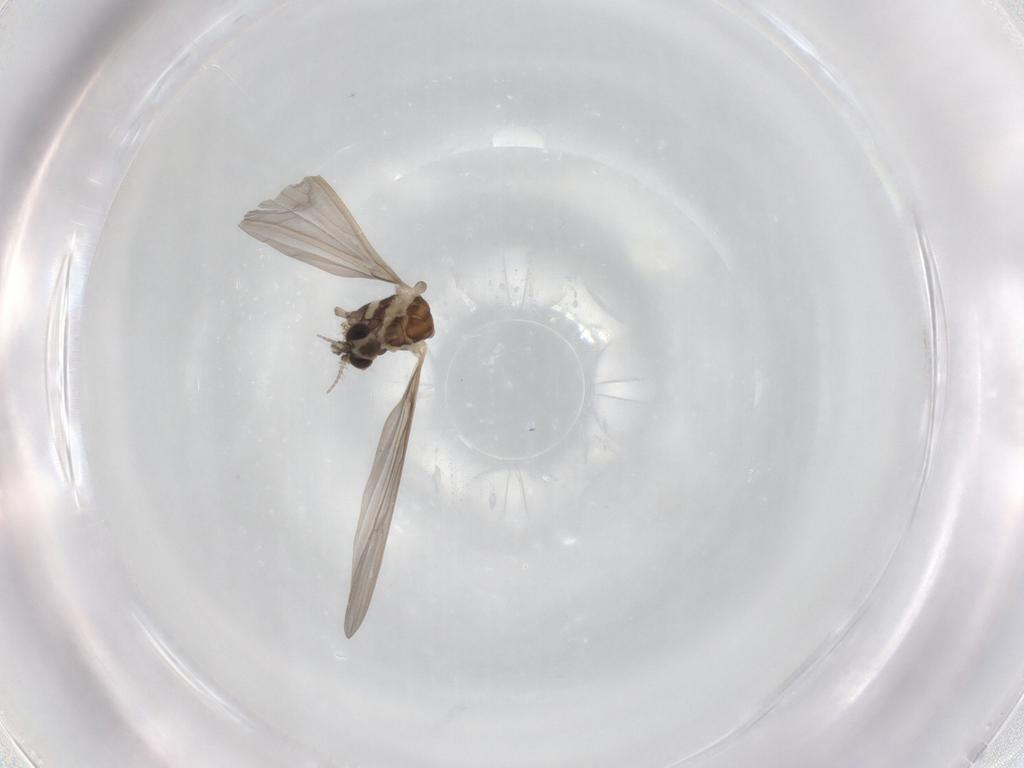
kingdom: Animalia
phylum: Arthropoda
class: Insecta
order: Diptera
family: Limoniidae
